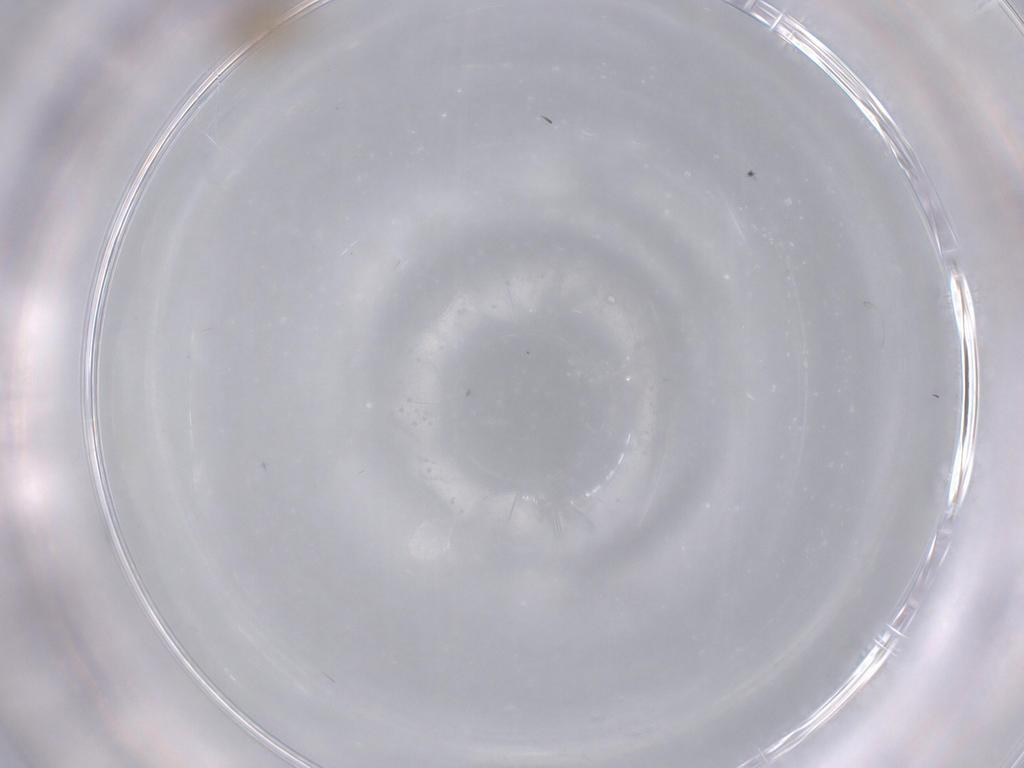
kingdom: Animalia
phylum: Arthropoda
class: Insecta
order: Hymenoptera
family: Mymaridae
